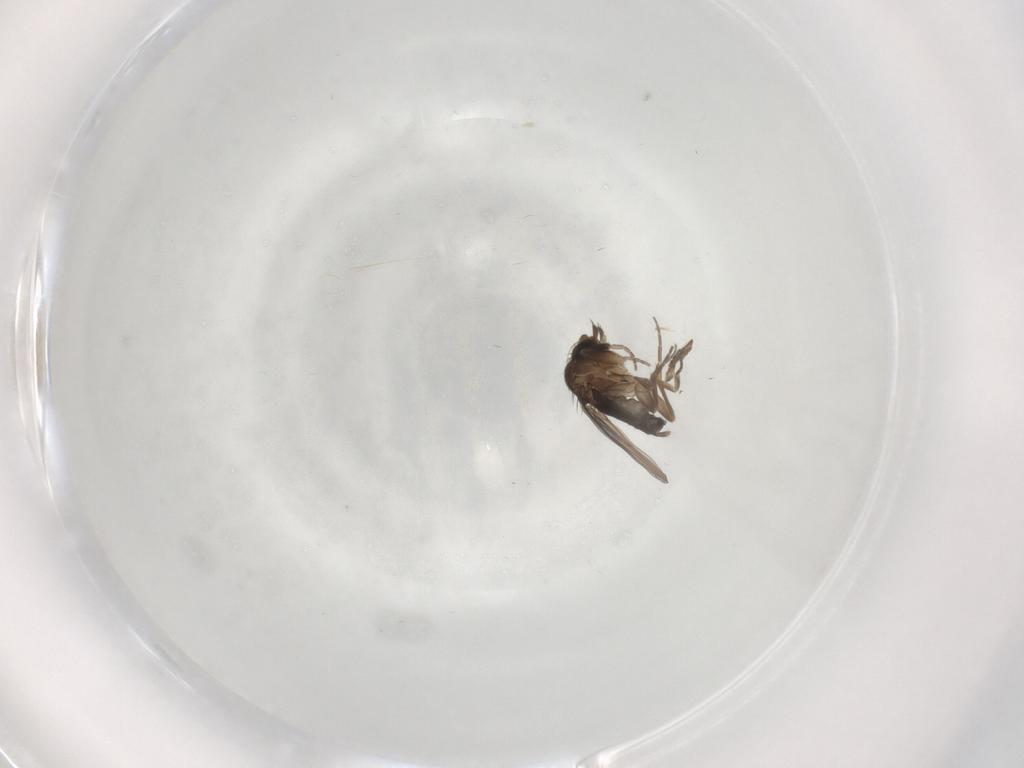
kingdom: Animalia
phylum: Arthropoda
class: Insecta
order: Diptera
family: Phoridae
